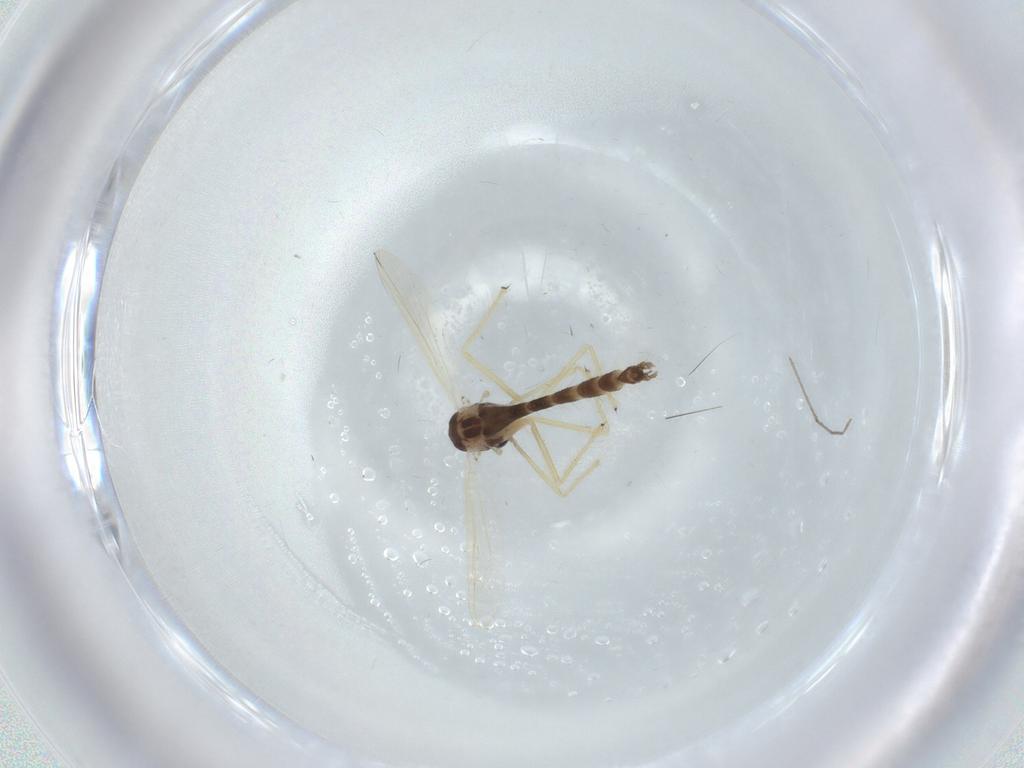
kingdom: Animalia
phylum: Arthropoda
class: Insecta
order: Diptera
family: Chironomidae
